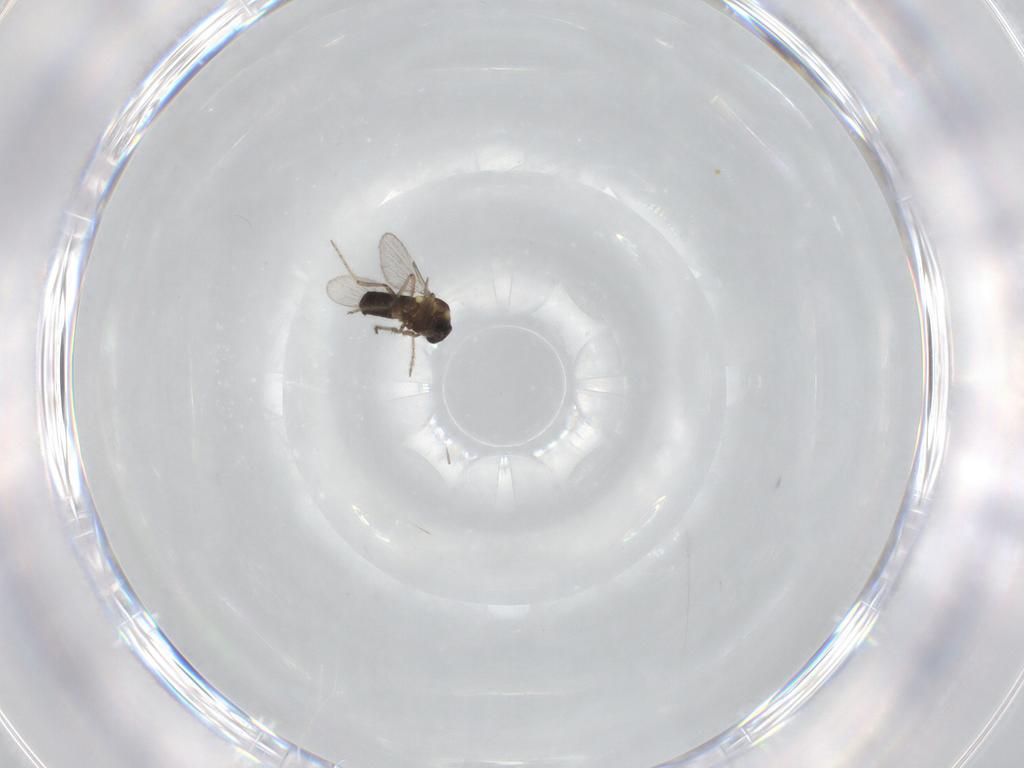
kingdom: Animalia
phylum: Arthropoda
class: Insecta
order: Diptera
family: Ceratopogonidae
